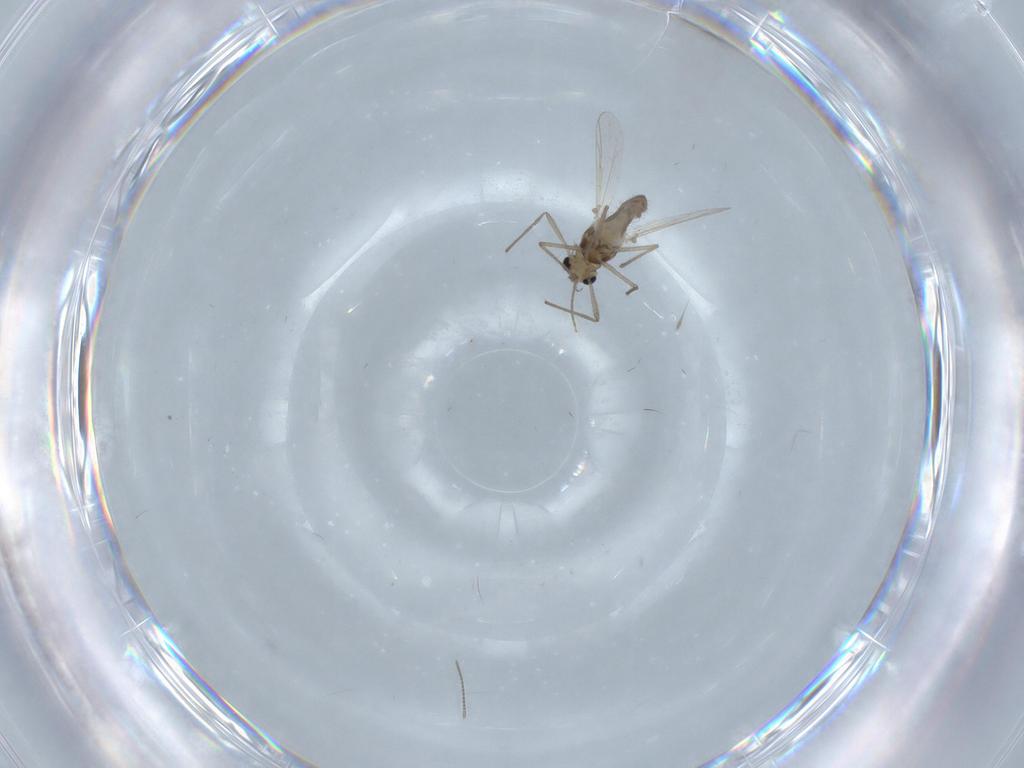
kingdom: Animalia
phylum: Arthropoda
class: Insecta
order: Diptera
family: Chironomidae
